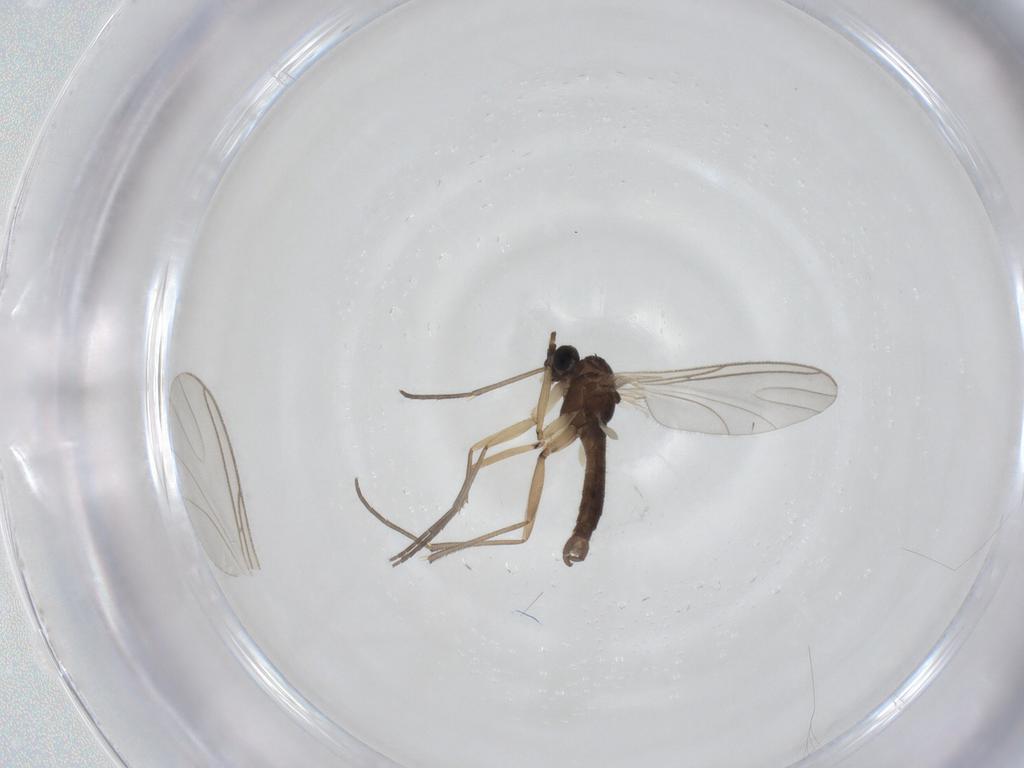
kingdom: Animalia
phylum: Arthropoda
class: Insecta
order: Diptera
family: Sciaridae
